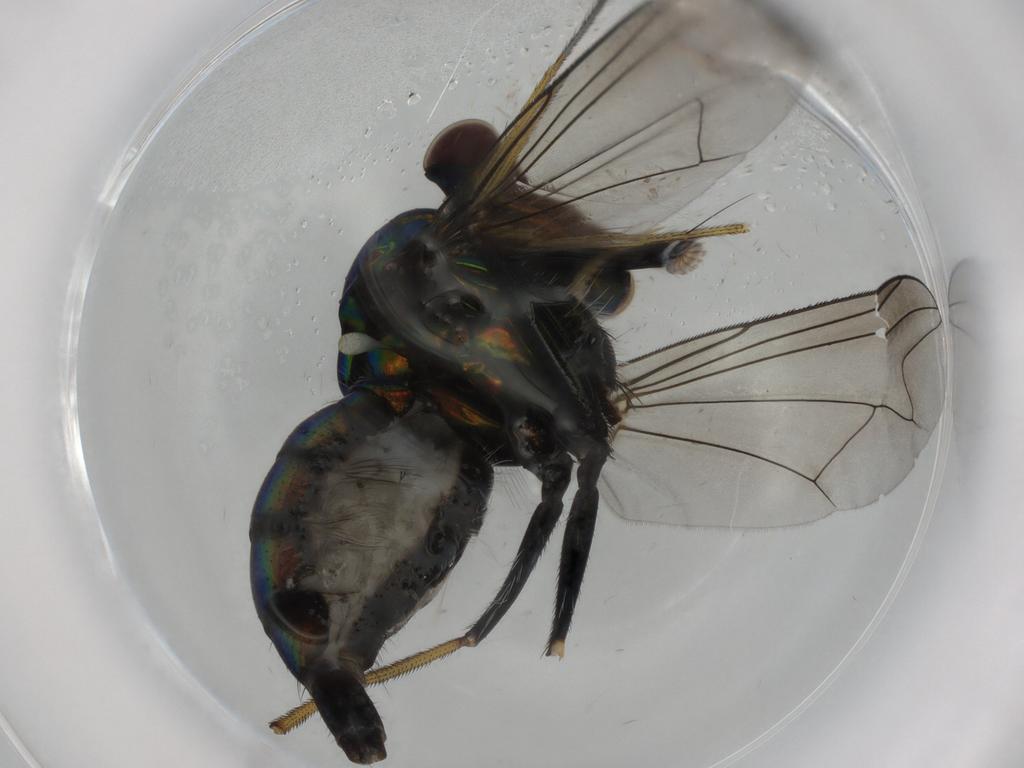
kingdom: Animalia
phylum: Arthropoda
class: Insecta
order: Diptera
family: Dolichopodidae
